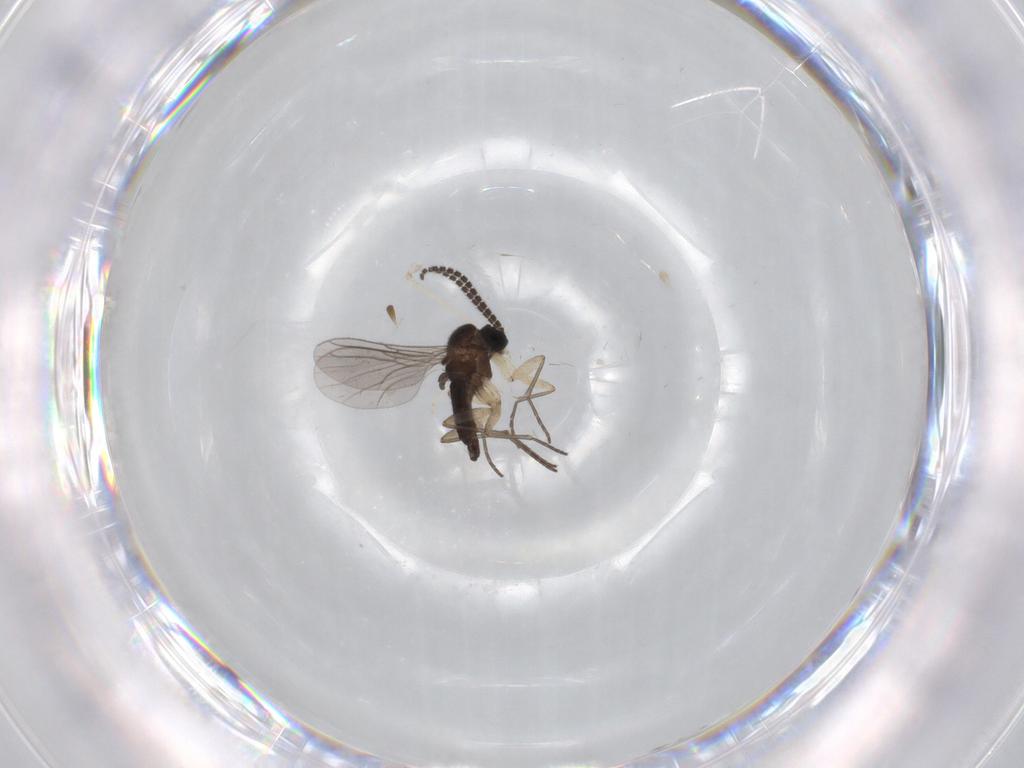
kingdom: Animalia
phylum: Arthropoda
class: Insecta
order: Diptera
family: Sciaridae
